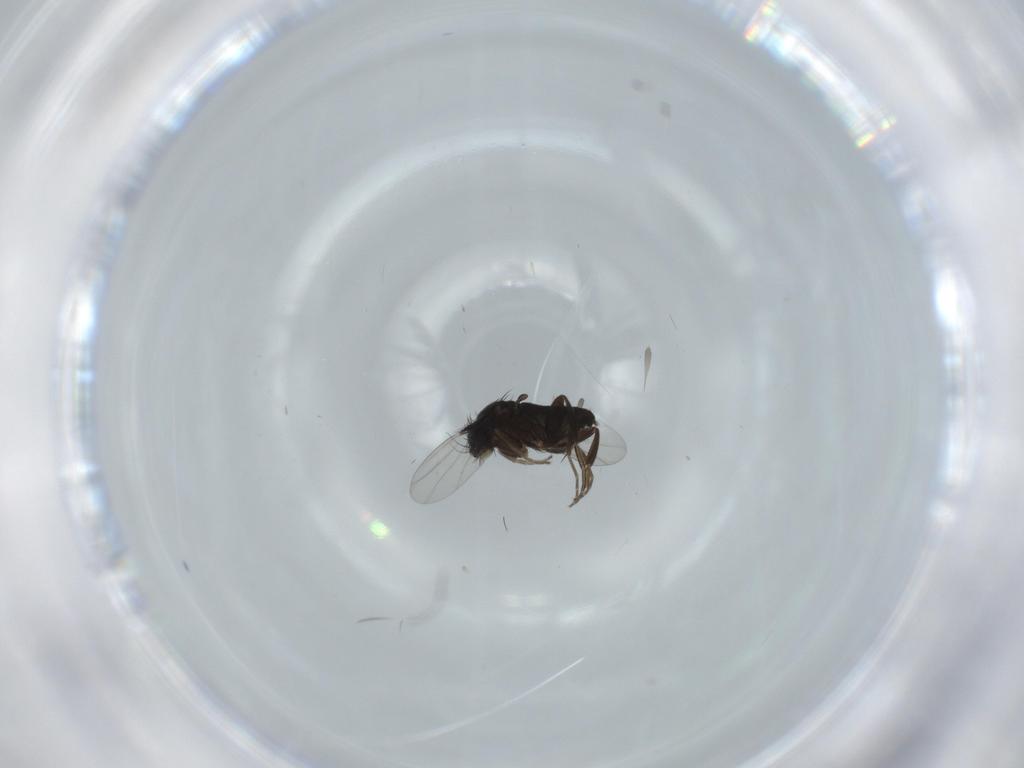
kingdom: Animalia
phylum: Arthropoda
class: Insecta
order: Diptera
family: Phoridae
